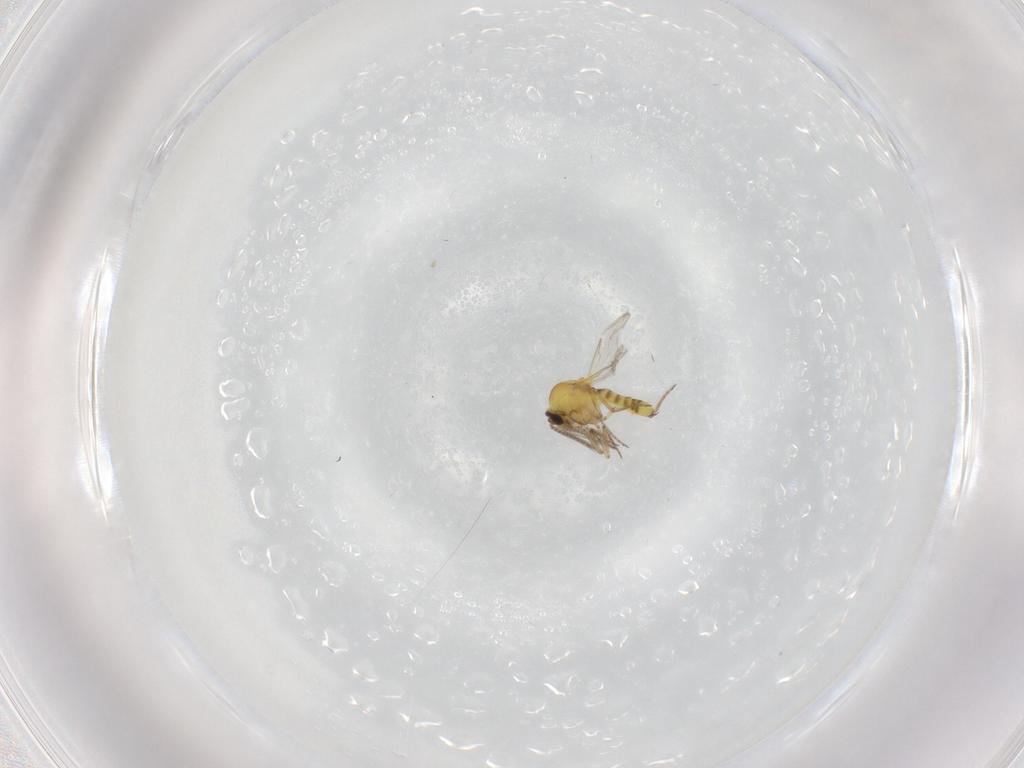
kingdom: Animalia
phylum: Arthropoda
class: Insecta
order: Diptera
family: Ceratopogonidae
